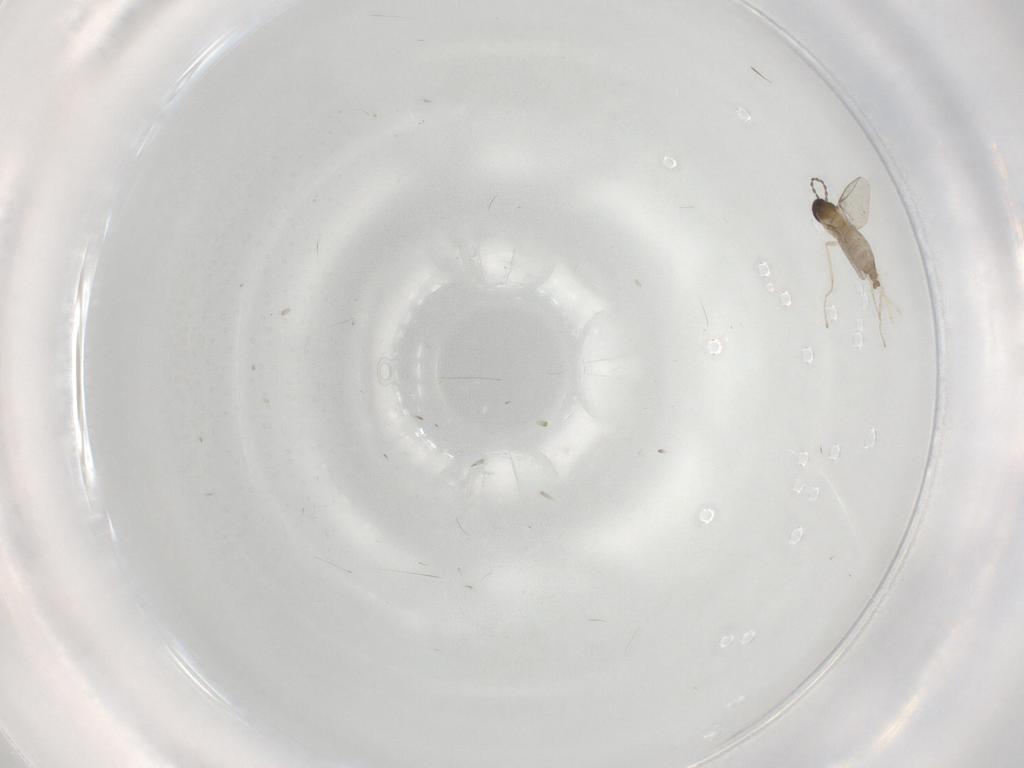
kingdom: Animalia
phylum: Arthropoda
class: Insecta
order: Diptera
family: Cecidomyiidae
